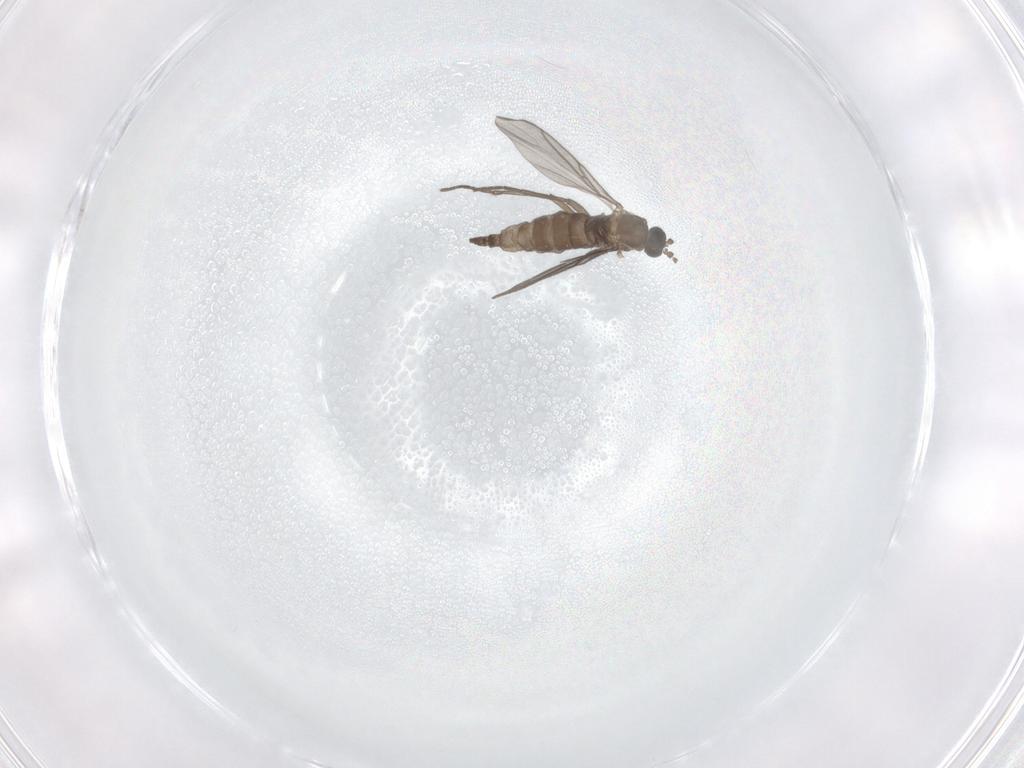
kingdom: Animalia
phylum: Arthropoda
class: Insecta
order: Diptera
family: Chironomidae
